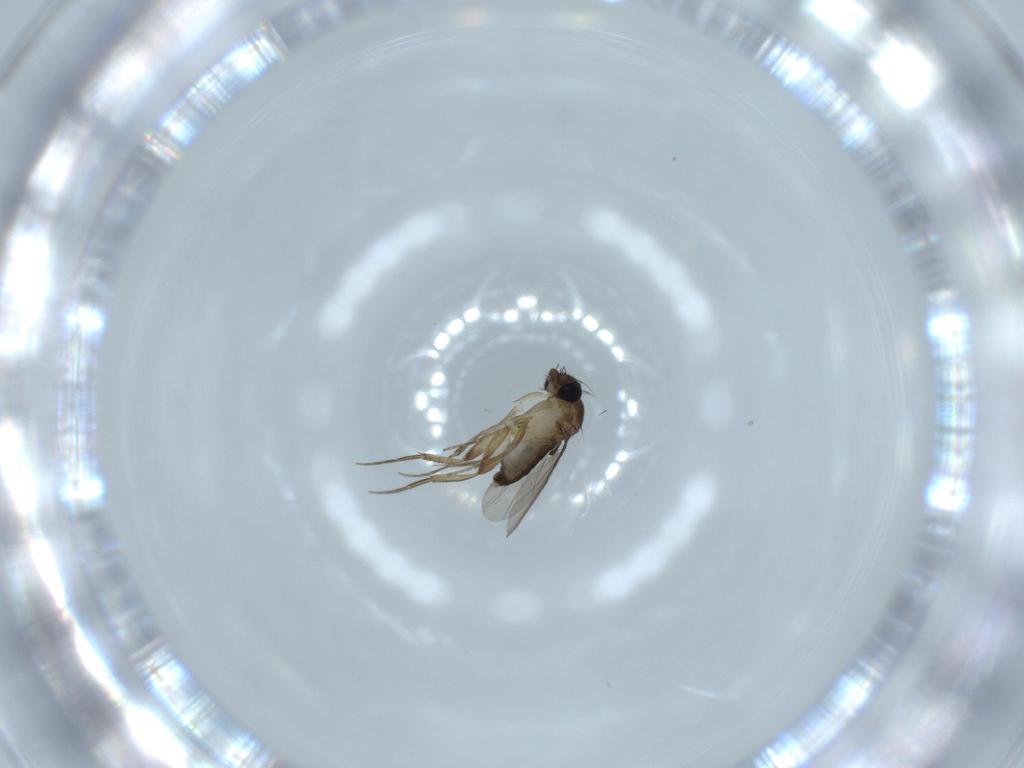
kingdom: Animalia
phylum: Arthropoda
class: Insecta
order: Diptera
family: Phoridae
